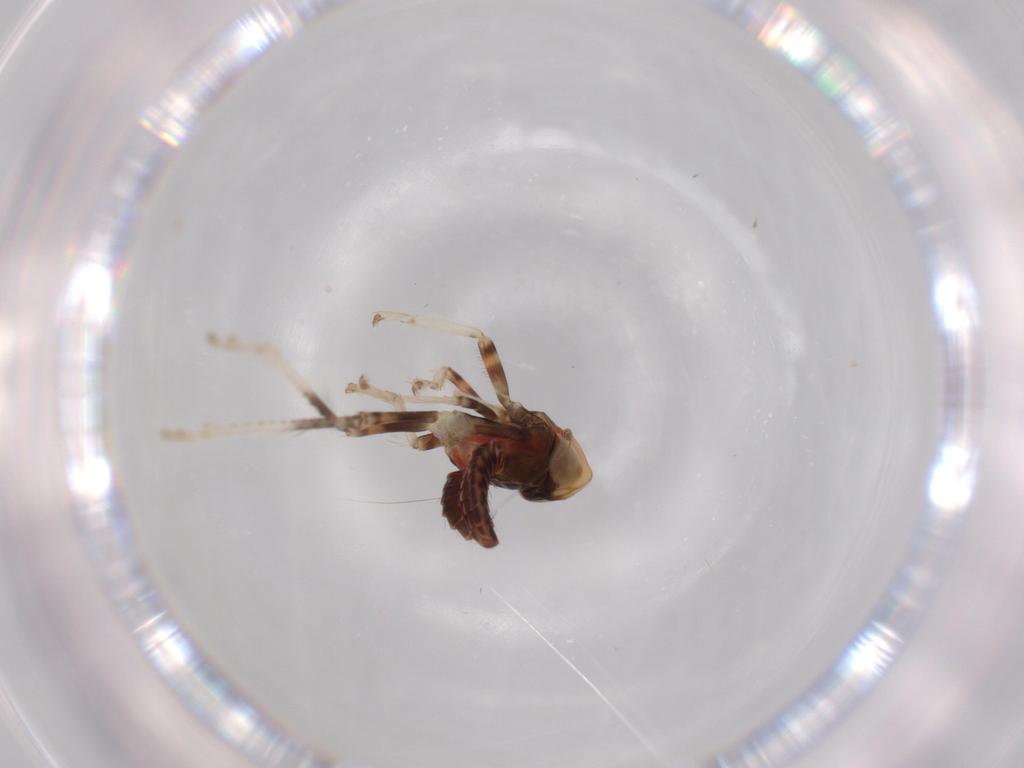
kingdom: Animalia
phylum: Arthropoda
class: Insecta
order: Hemiptera
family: Cicadellidae
